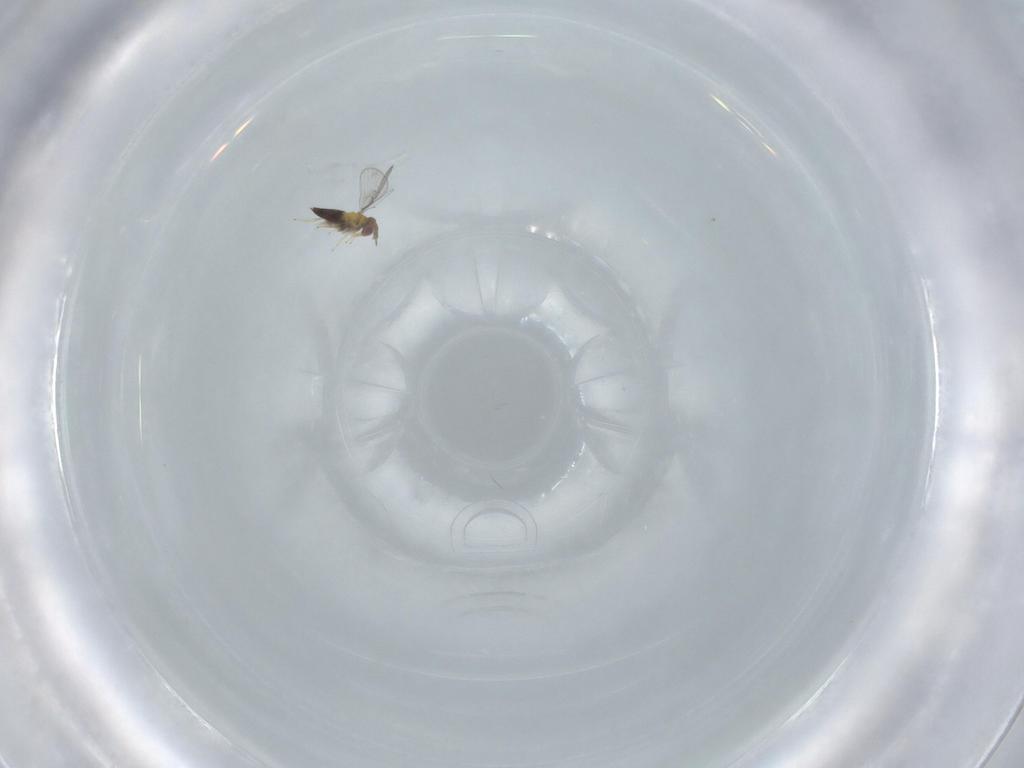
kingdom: Animalia
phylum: Arthropoda
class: Insecta
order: Hymenoptera
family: Trichogrammatidae
